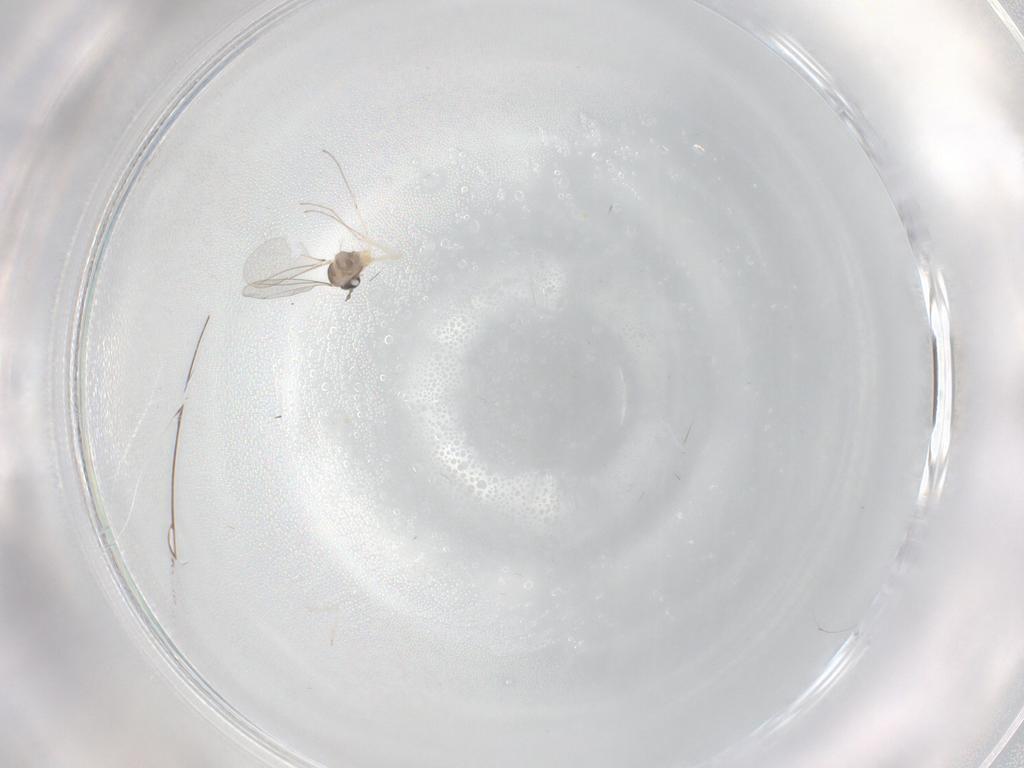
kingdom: Animalia
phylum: Arthropoda
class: Insecta
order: Diptera
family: Cecidomyiidae
